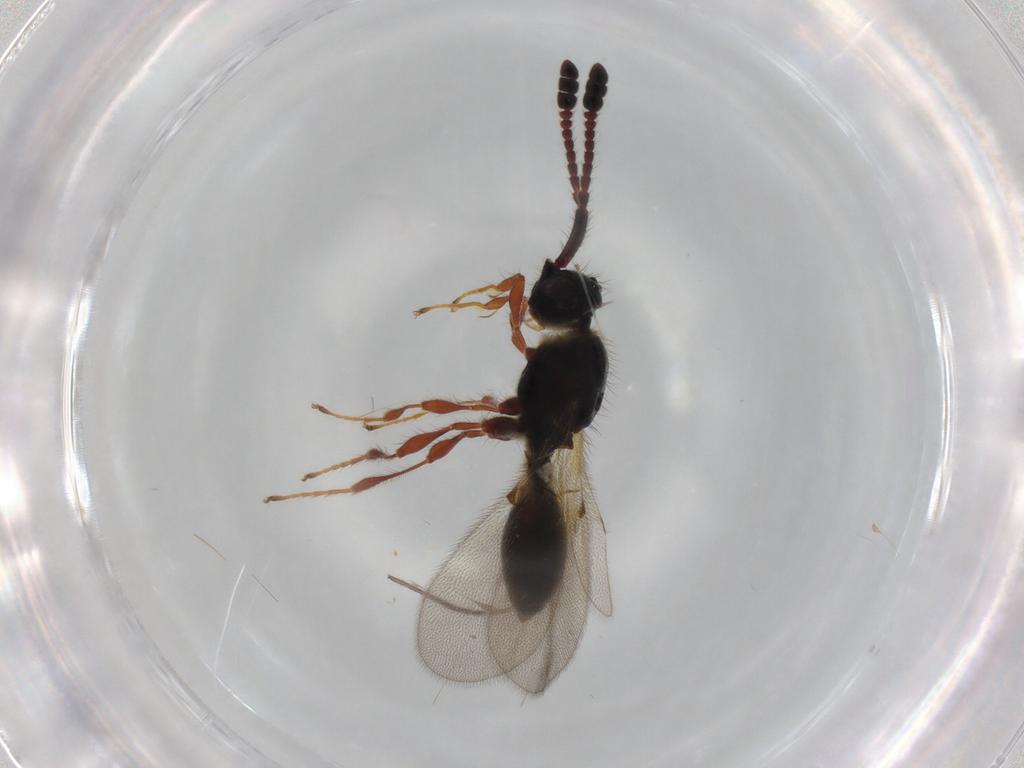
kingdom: Animalia
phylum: Arthropoda
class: Insecta
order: Hymenoptera
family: Diapriidae
